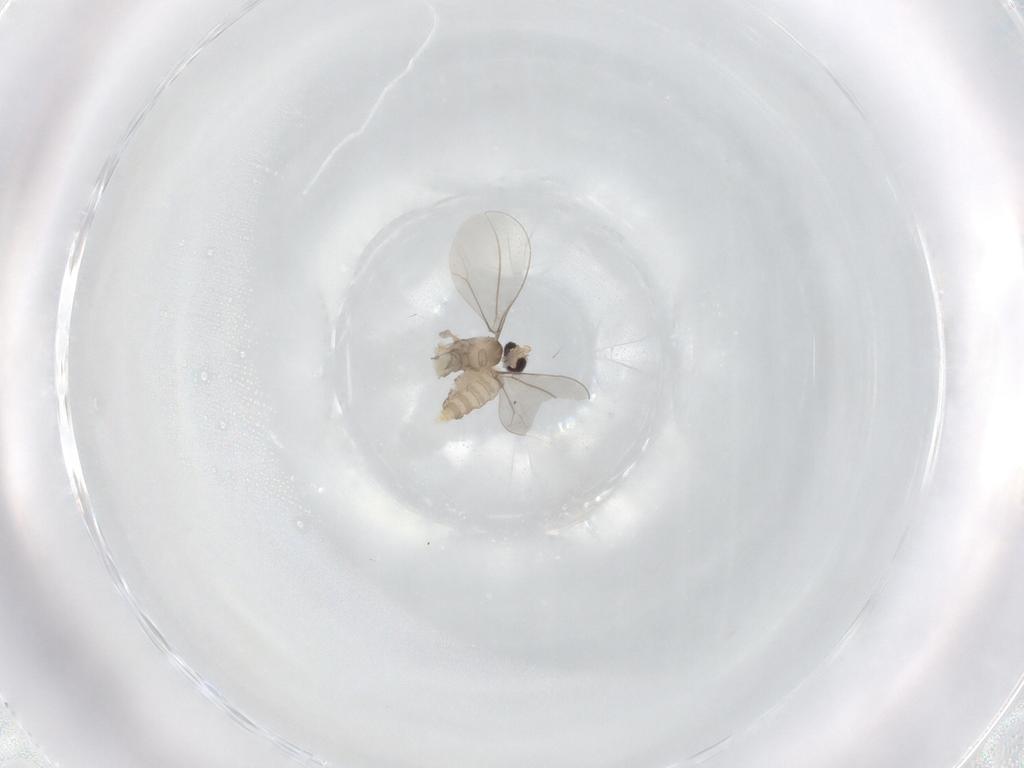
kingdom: Animalia
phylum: Arthropoda
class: Insecta
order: Diptera
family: Cecidomyiidae
